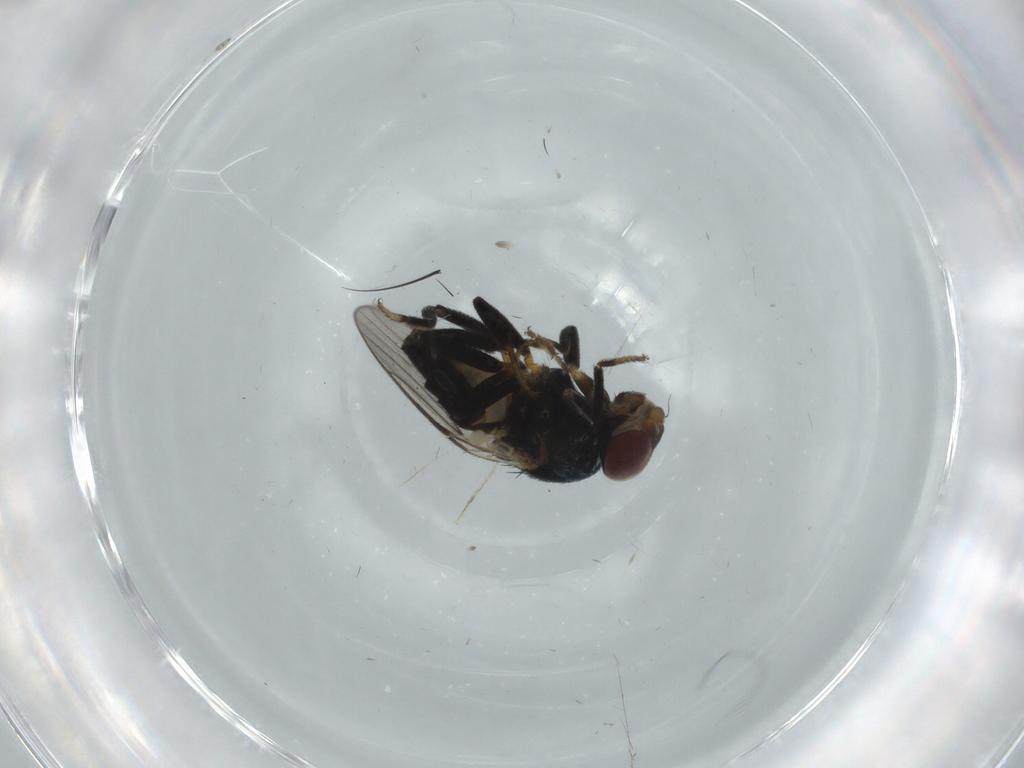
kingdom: Animalia
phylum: Arthropoda
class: Insecta
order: Diptera
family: Chloropidae
